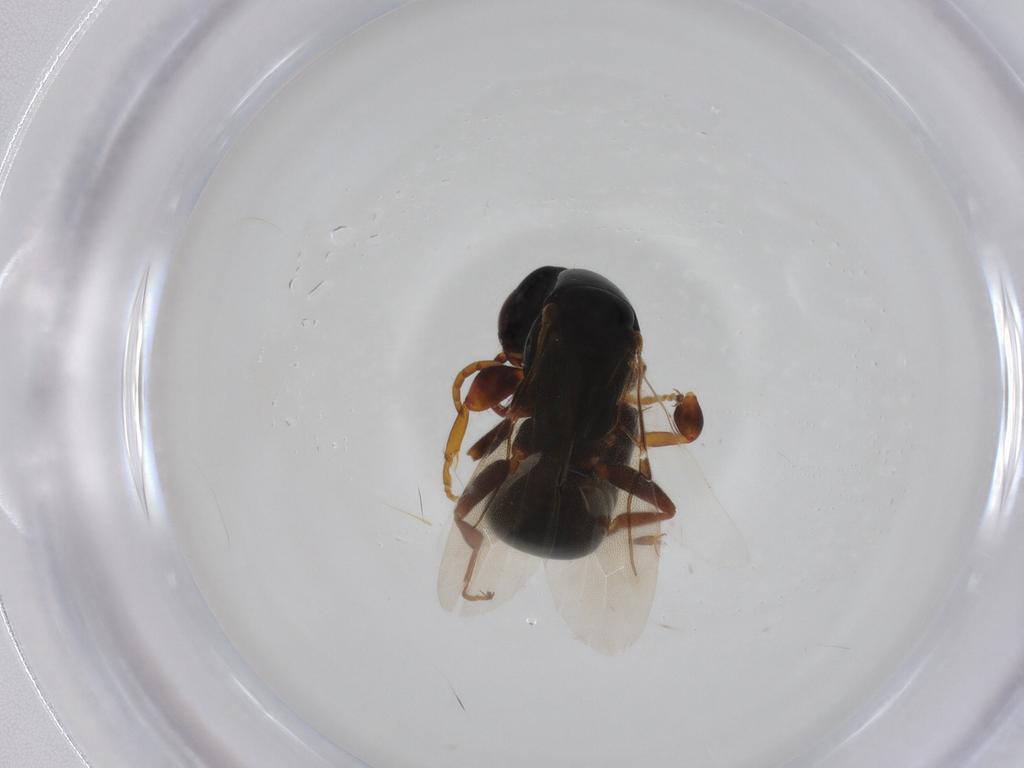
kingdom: Animalia
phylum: Arthropoda
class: Insecta
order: Hymenoptera
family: Bethylidae
